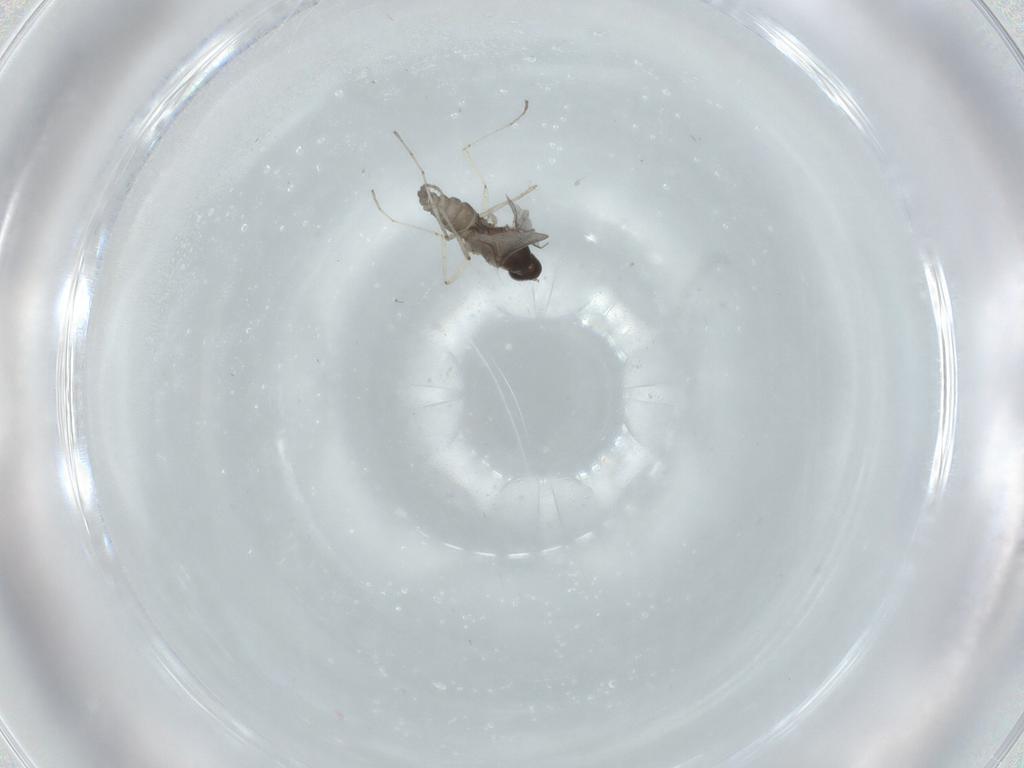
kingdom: Animalia
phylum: Arthropoda
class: Insecta
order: Diptera
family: Cecidomyiidae
